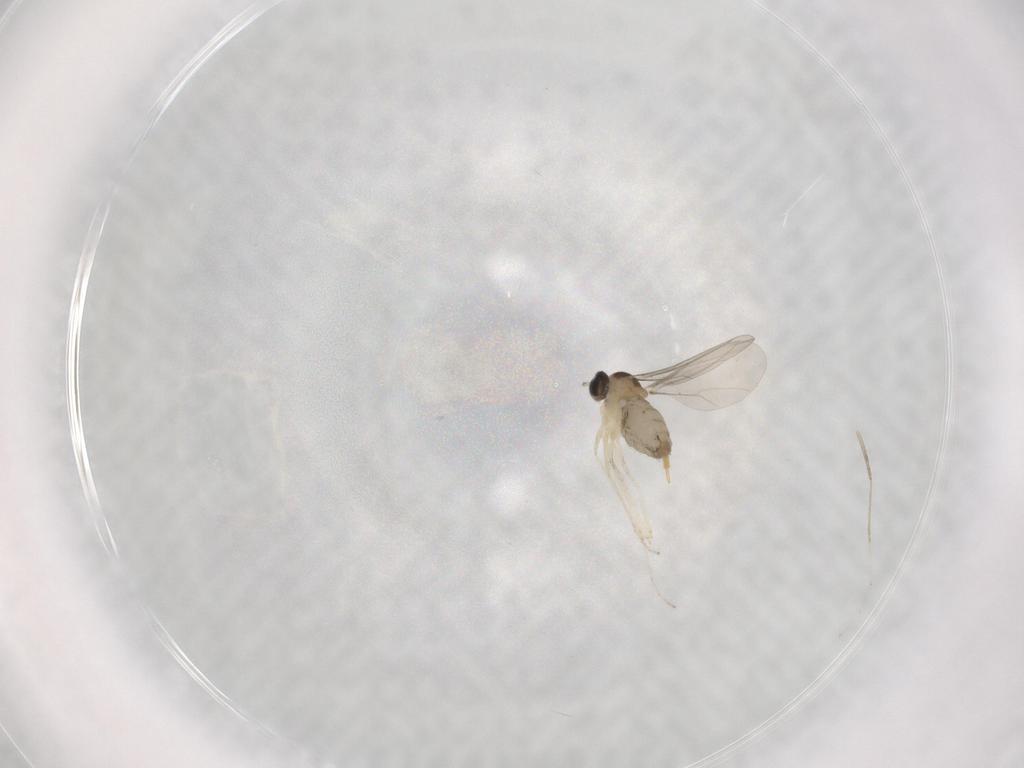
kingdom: Animalia
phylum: Arthropoda
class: Insecta
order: Diptera
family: Cecidomyiidae
